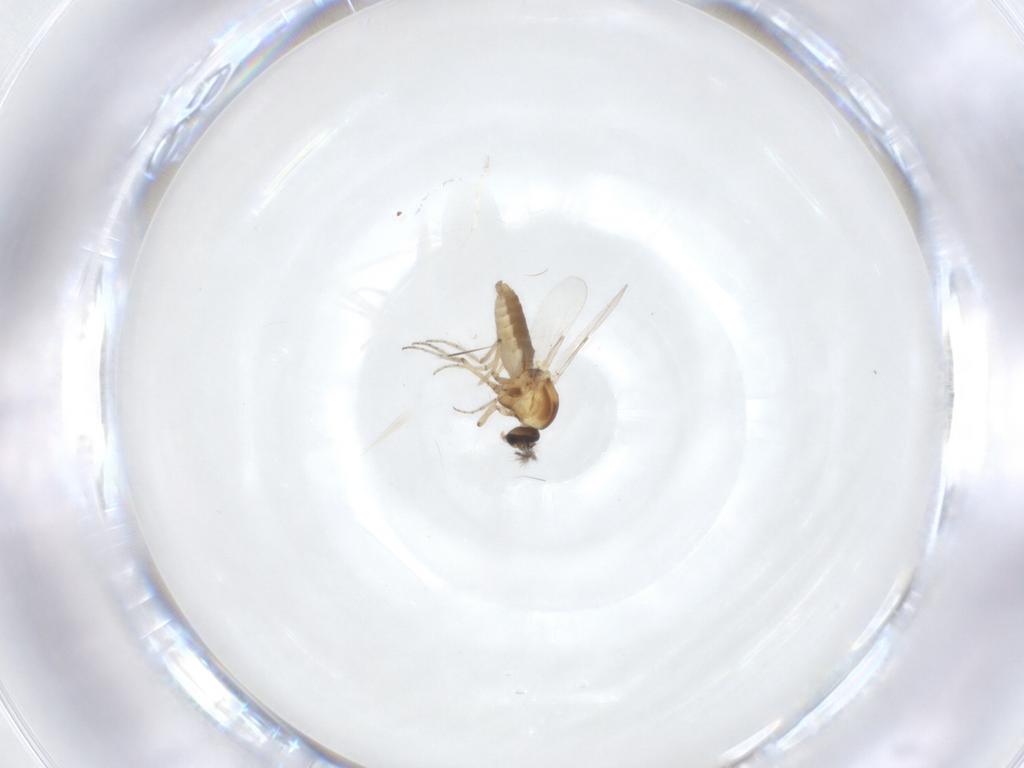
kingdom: Animalia
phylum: Arthropoda
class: Insecta
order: Diptera
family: Ceratopogonidae
